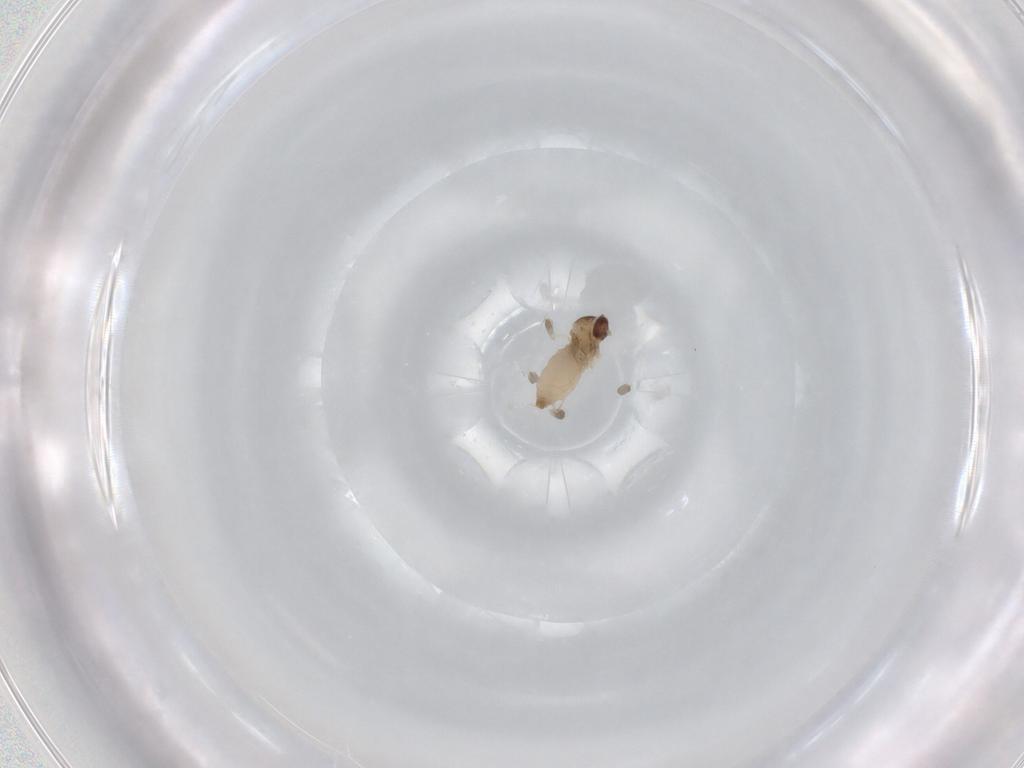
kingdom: Animalia
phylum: Arthropoda
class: Insecta
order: Diptera
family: Cecidomyiidae
